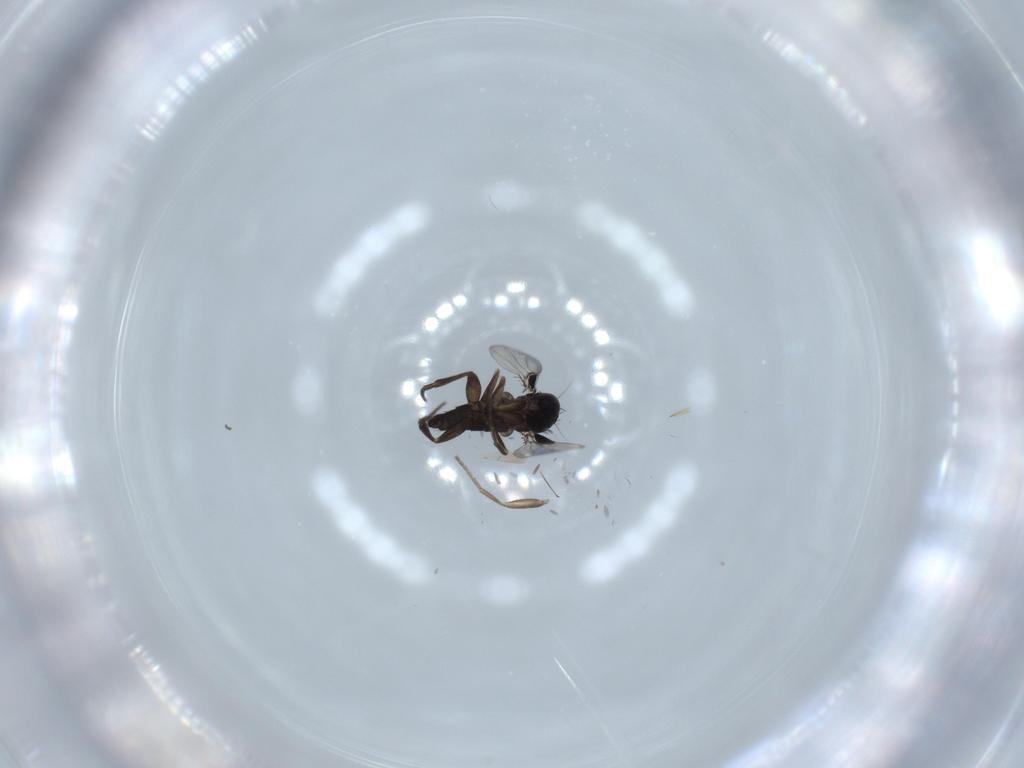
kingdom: Animalia
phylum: Arthropoda
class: Insecta
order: Diptera
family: Phoridae
